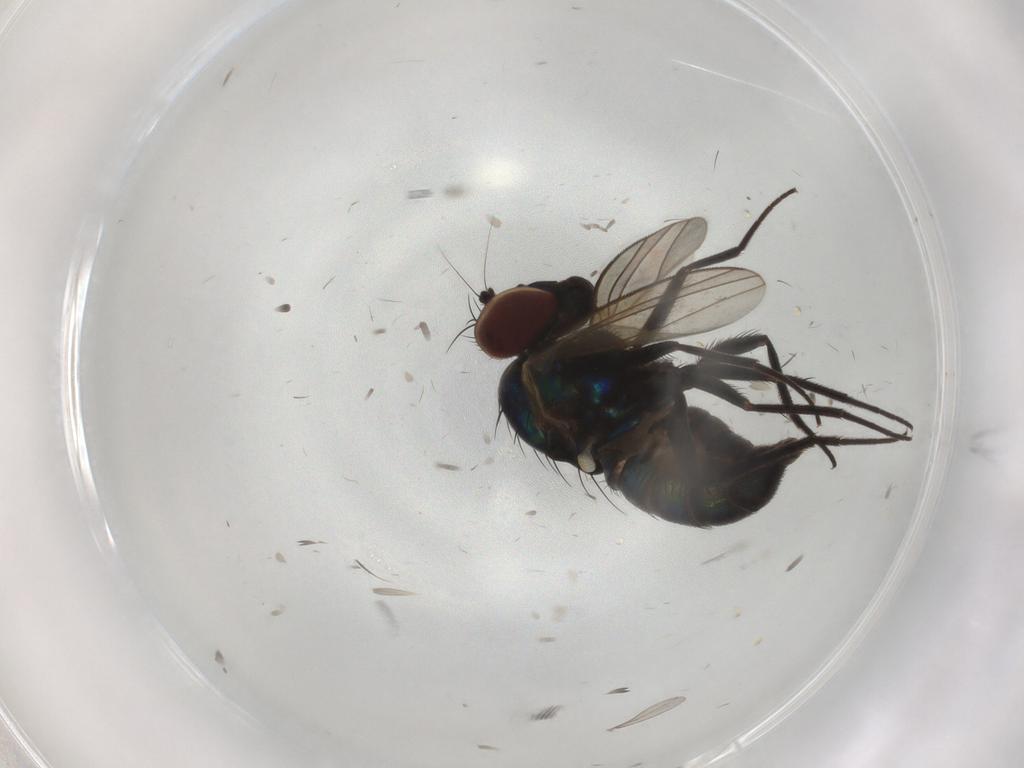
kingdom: Animalia
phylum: Arthropoda
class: Insecta
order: Diptera
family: Dolichopodidae
